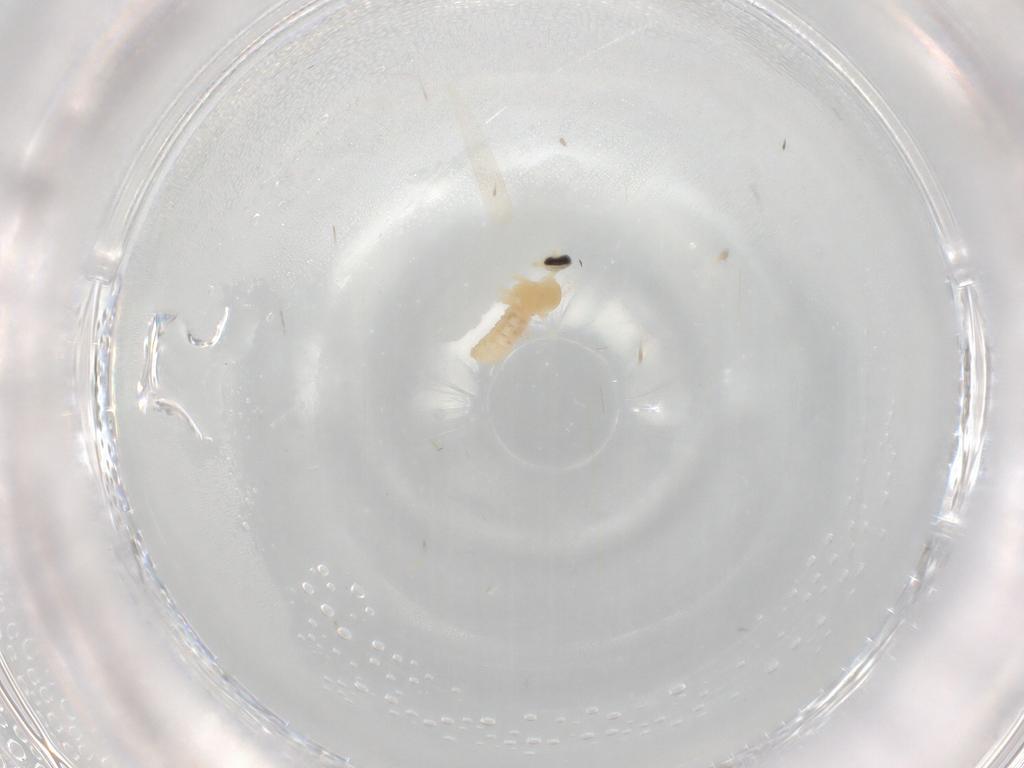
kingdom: Animalia
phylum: Arthropoda
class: Insecta
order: Diptera
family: Cecidomyiidae
